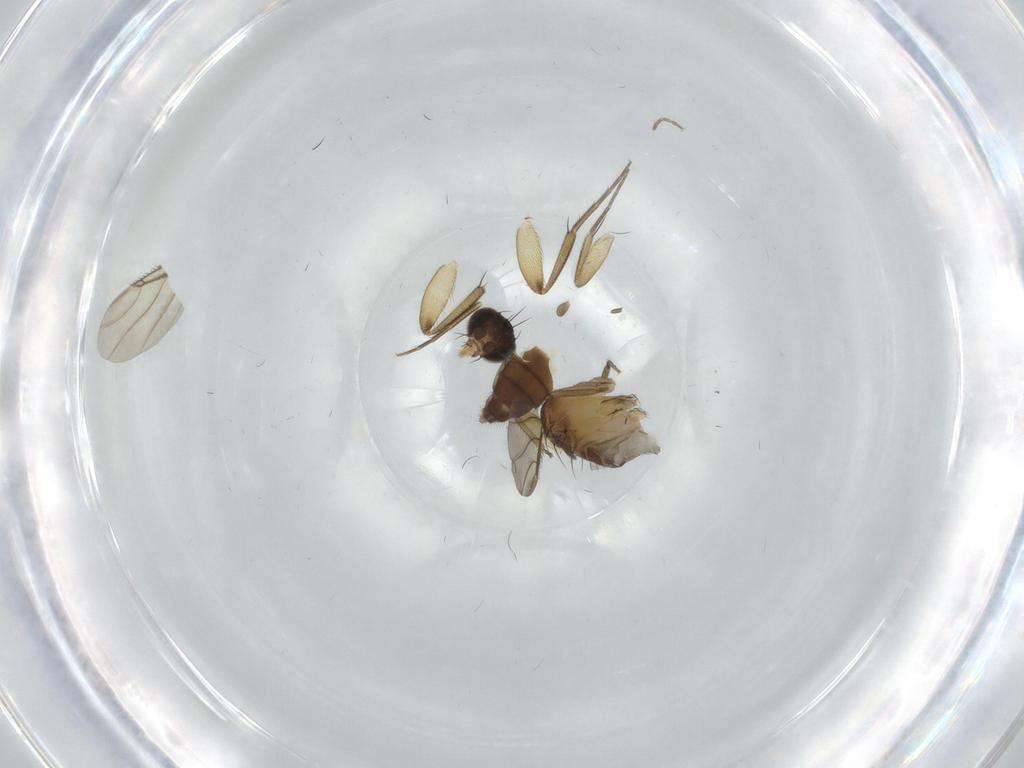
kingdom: Animalia
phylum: Arthropoda
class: Insecta
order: Diptera
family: Phoridae
